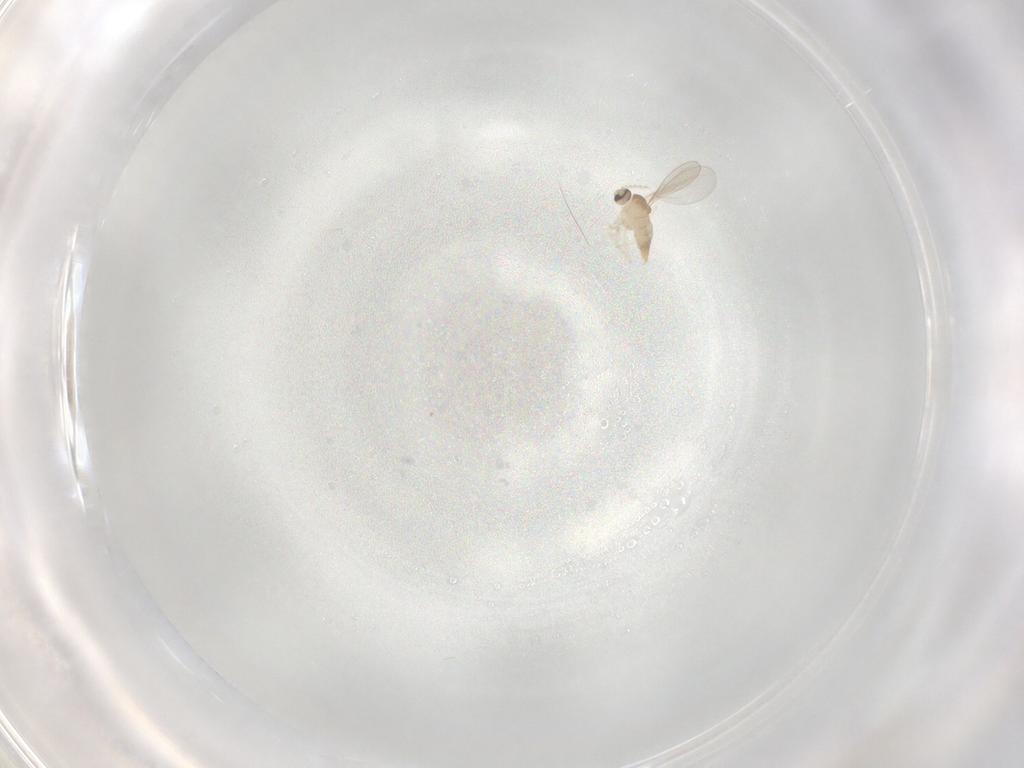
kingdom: Animalia
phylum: Arthropoda
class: Insecta
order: Diptera
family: Cecidomyiidae
